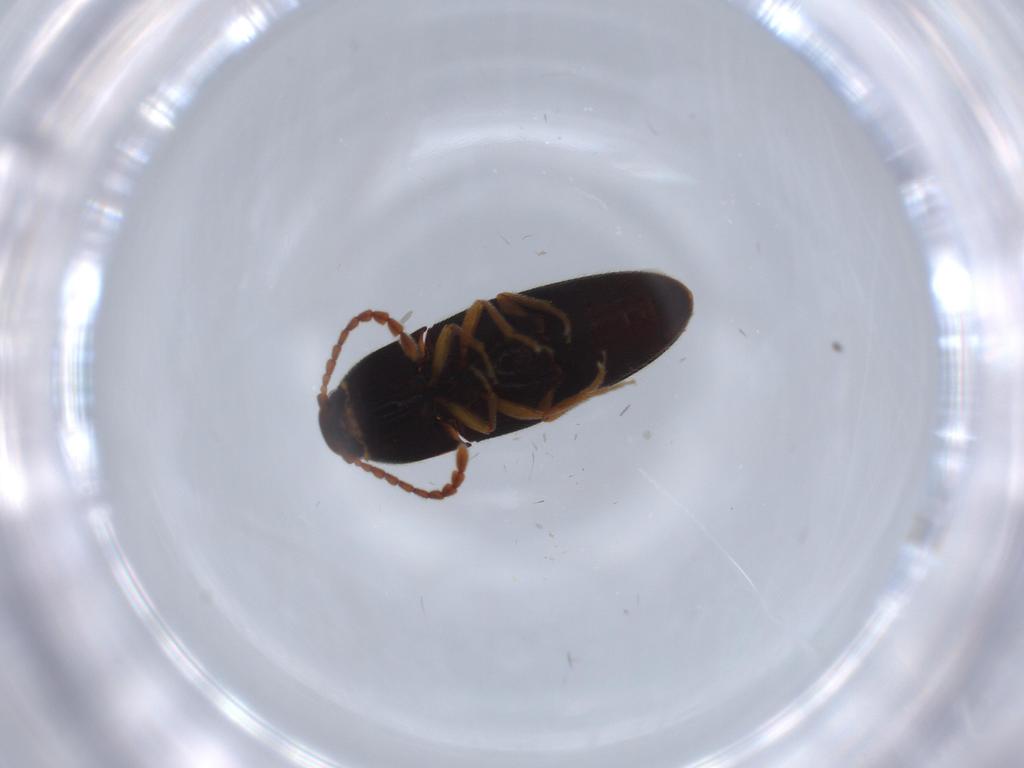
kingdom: Animalia
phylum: Arthropoda
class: Insecta
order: Coleoptera
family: Elateridae
